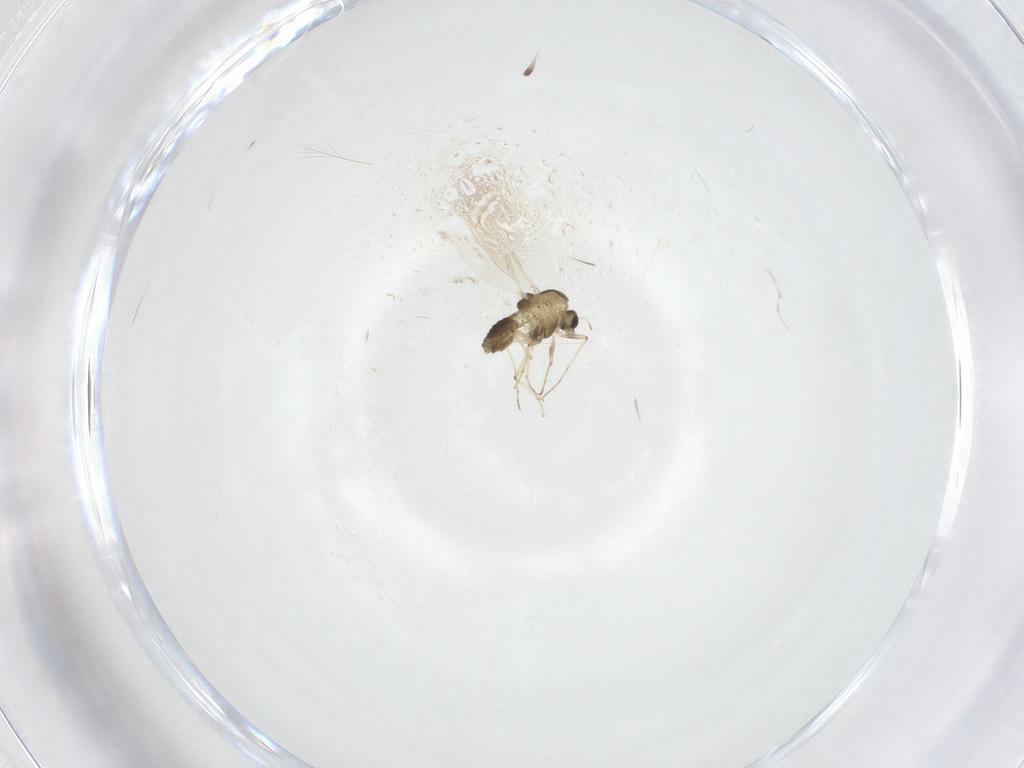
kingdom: Animalia
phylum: Arthropoda
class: Insecta
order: Diptera
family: Chironomidae
